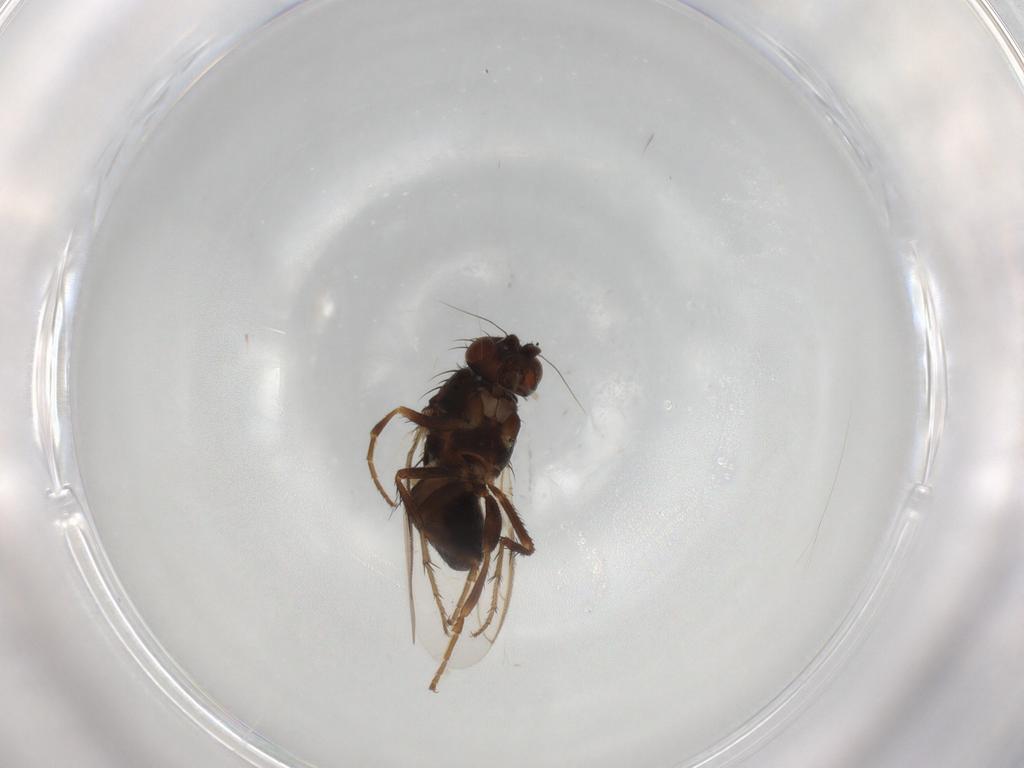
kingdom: Animalia
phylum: Arthropoda
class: Insecta
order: Diptera
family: Sphaeroceridae
